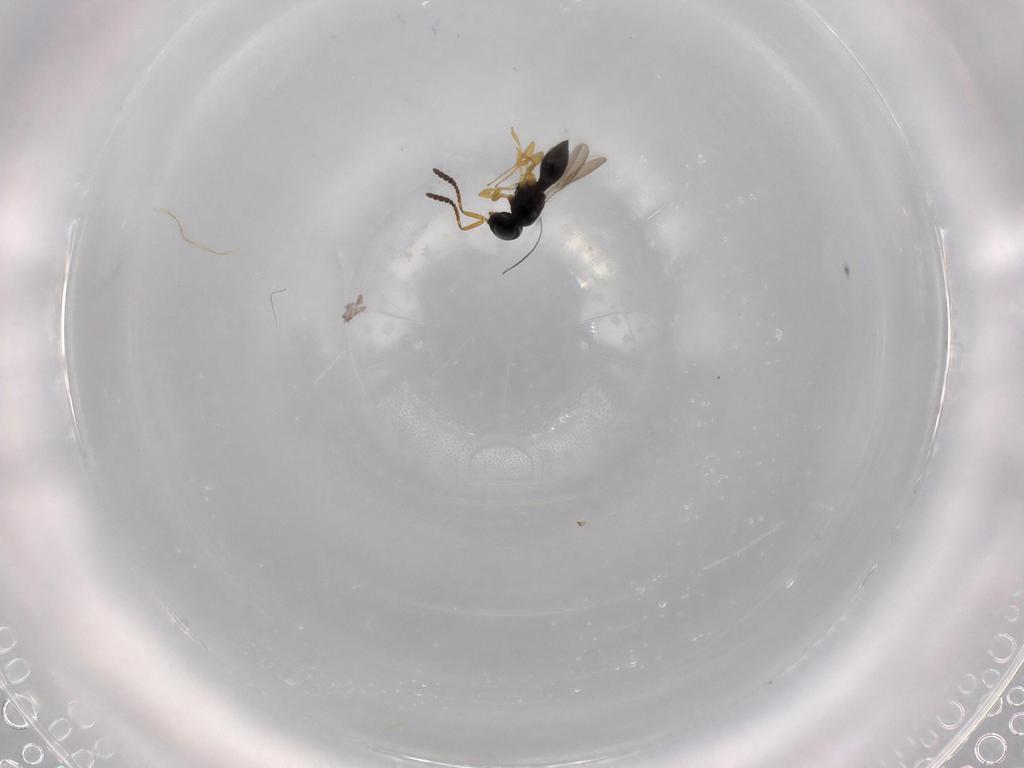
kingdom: Animalia
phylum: Arthropoda
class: Insecta
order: Hymenoptera
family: Scelionidae
